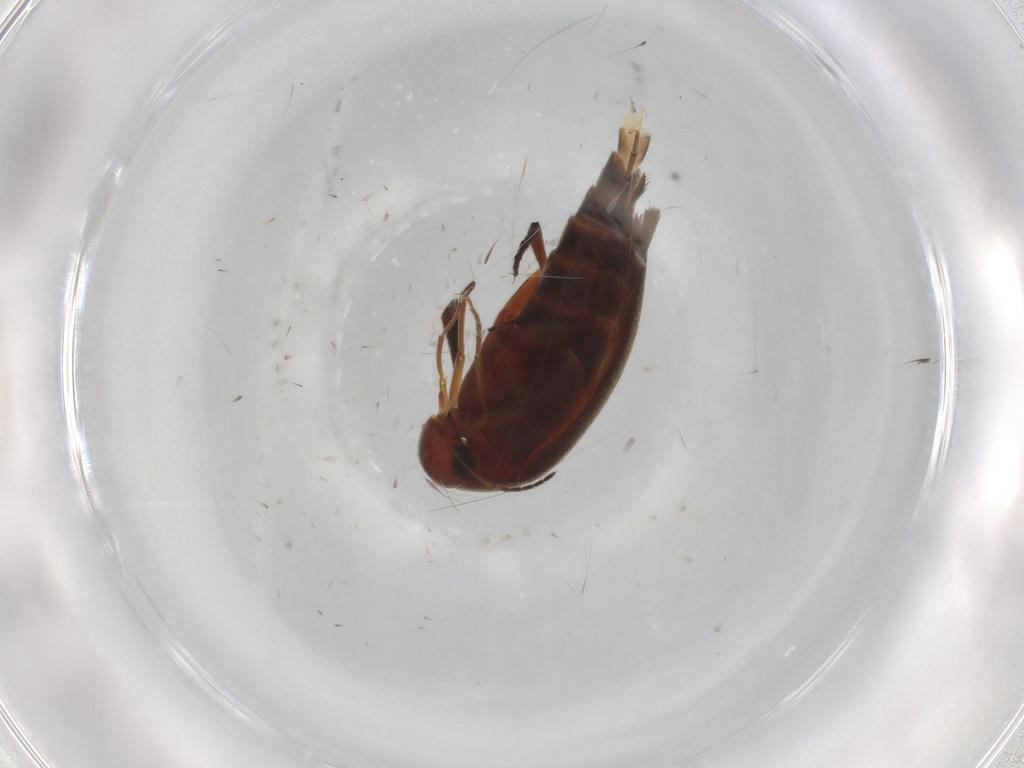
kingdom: Animalia
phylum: Arthropoda
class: Insecta
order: Coleoptera
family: Mordellidae
